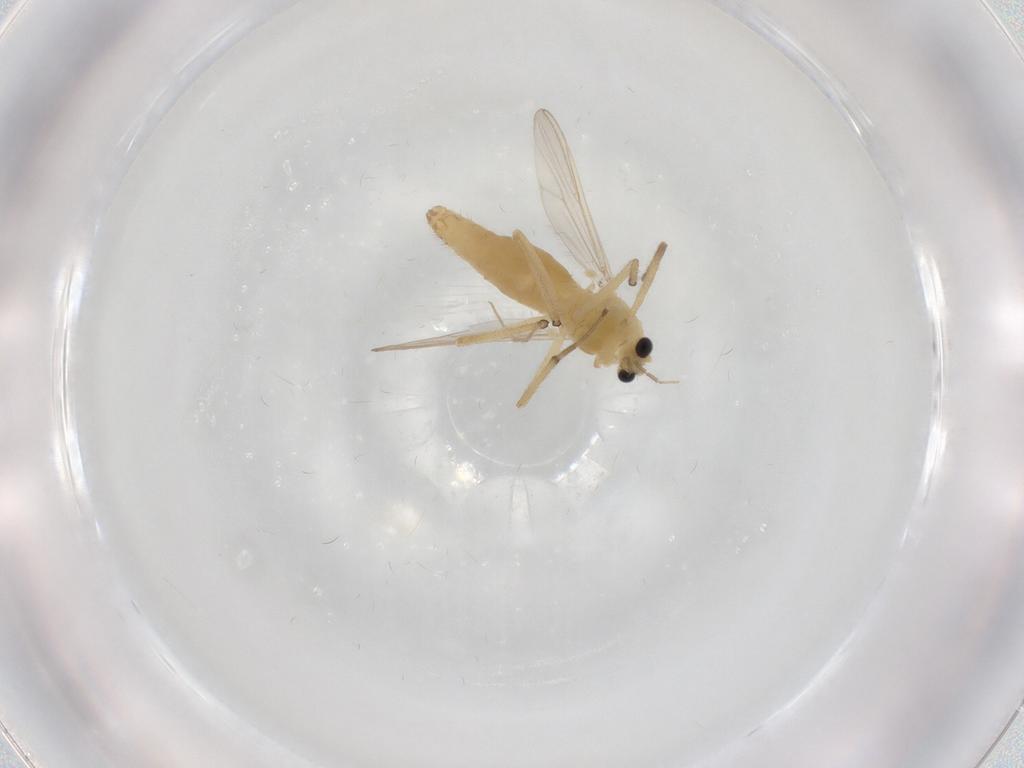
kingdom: Animalia
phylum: Arthropoda
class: Insecta
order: Diptera
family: Chironomidae
